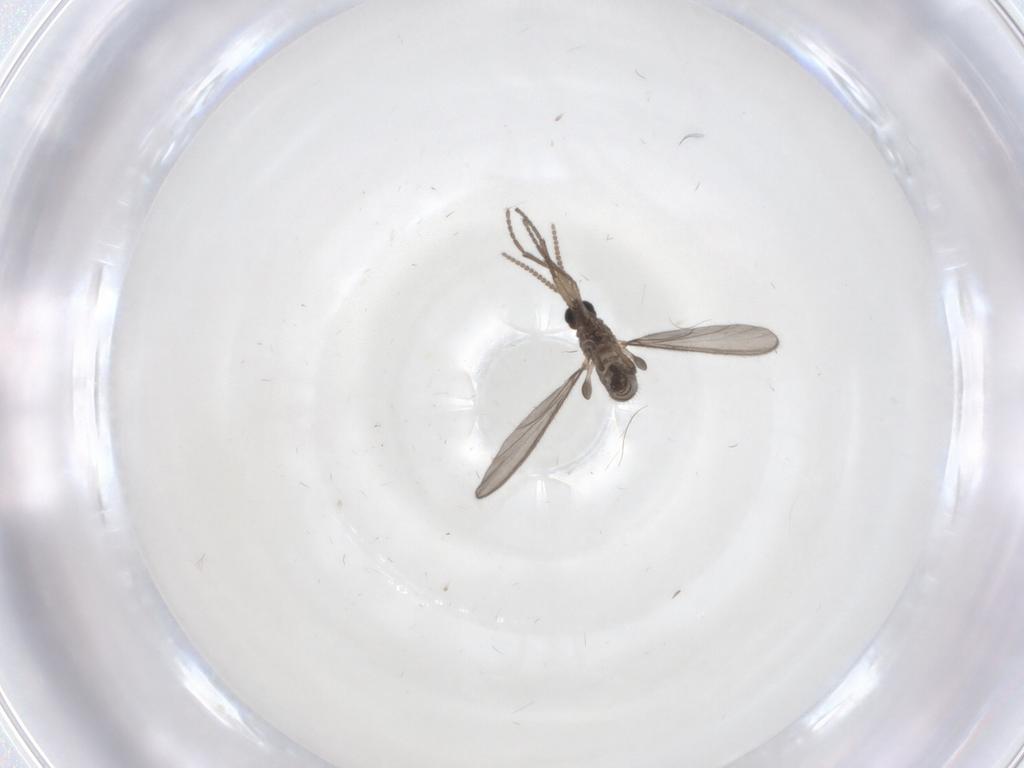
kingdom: Animalia
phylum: Arthropoda
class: Insecta
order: Diptera
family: Sciaridae
